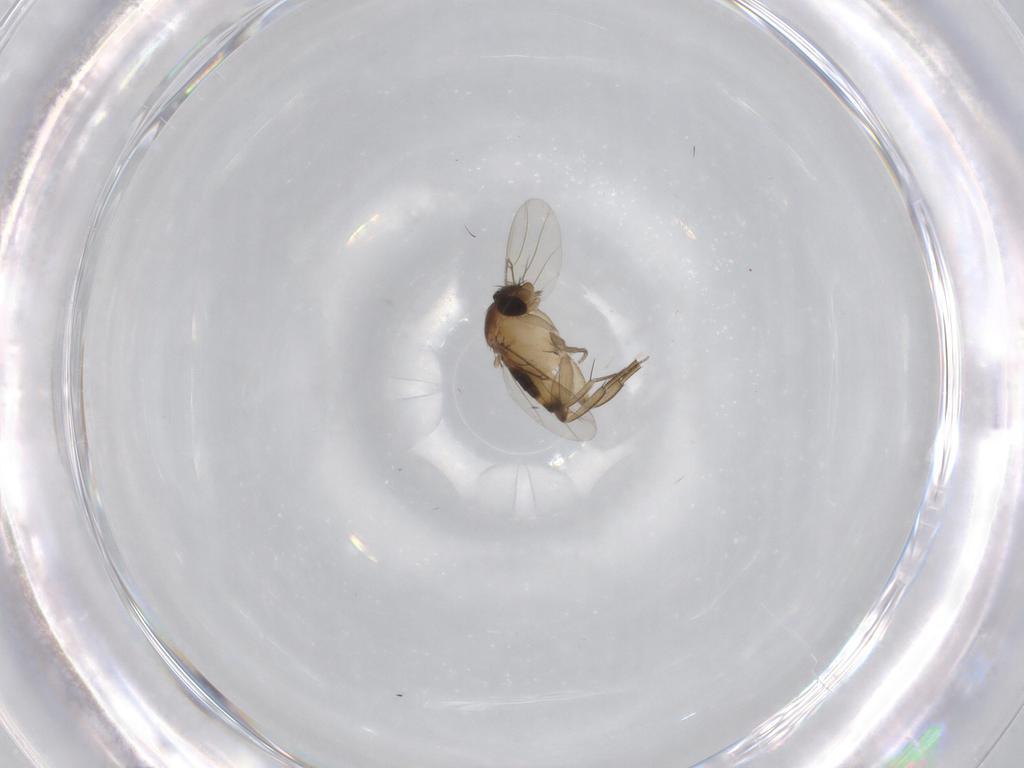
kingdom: Animalia
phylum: Arthropoda
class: Insecta
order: Diptera
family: Phoridae
